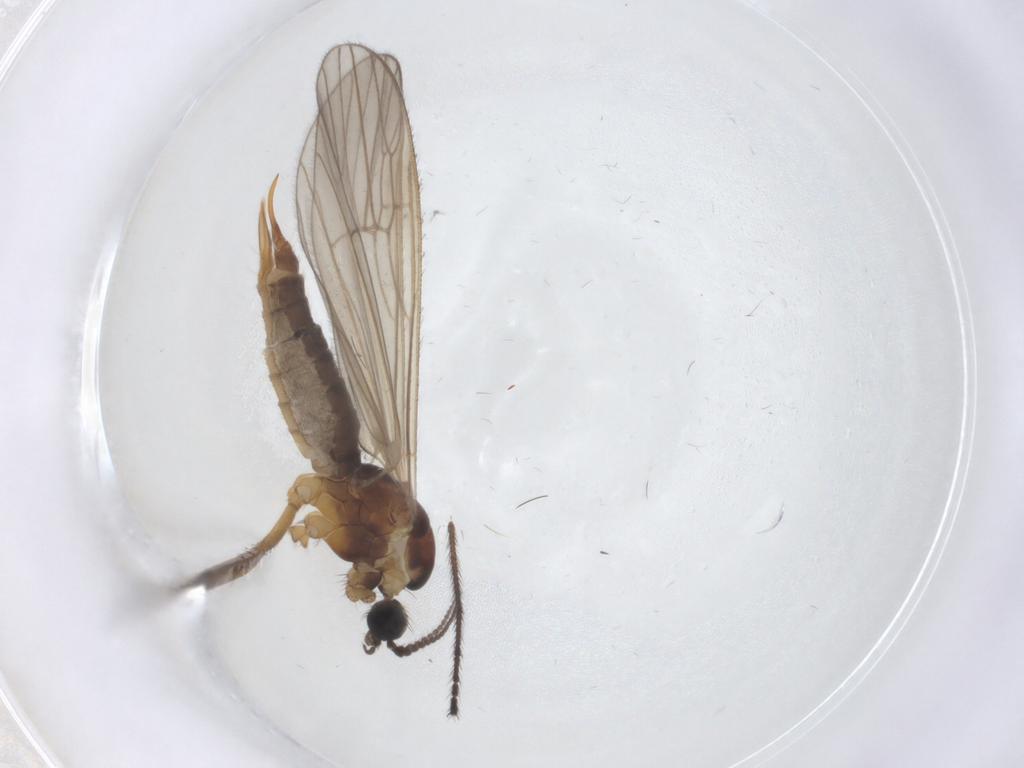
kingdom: Animalia
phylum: Arthropoda
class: Insecta
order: Diptera
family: Agromyzidae
